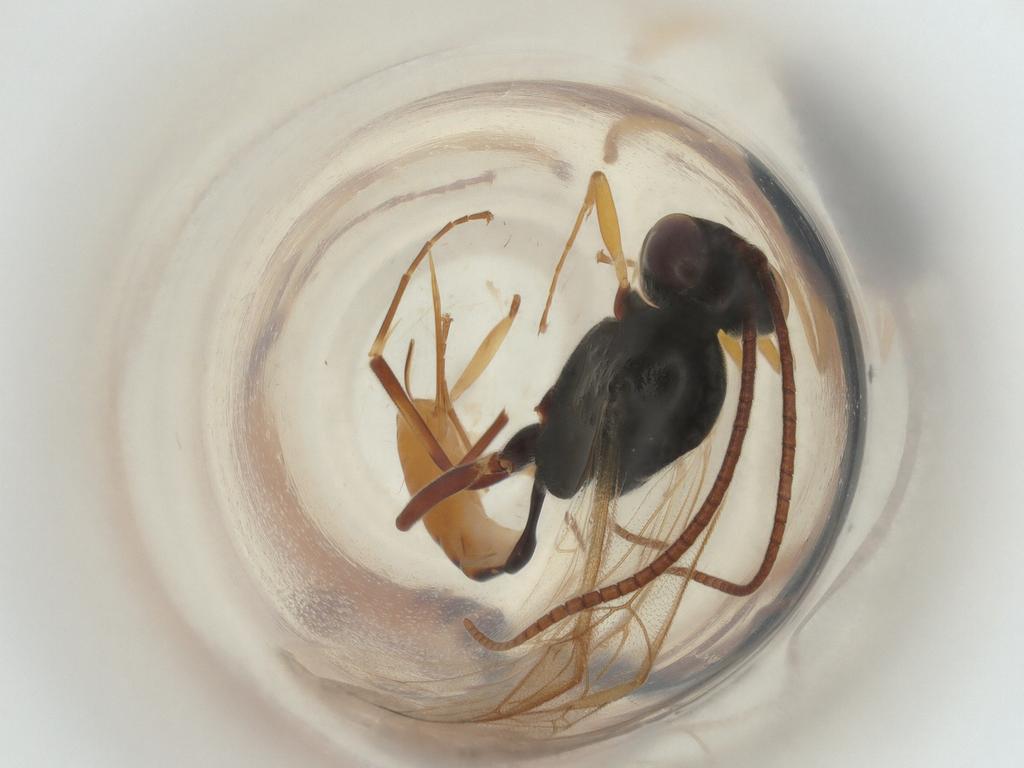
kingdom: Animalia
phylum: Arthropoda
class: Insecta
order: Hymenoptera
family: Ichneumonidae
